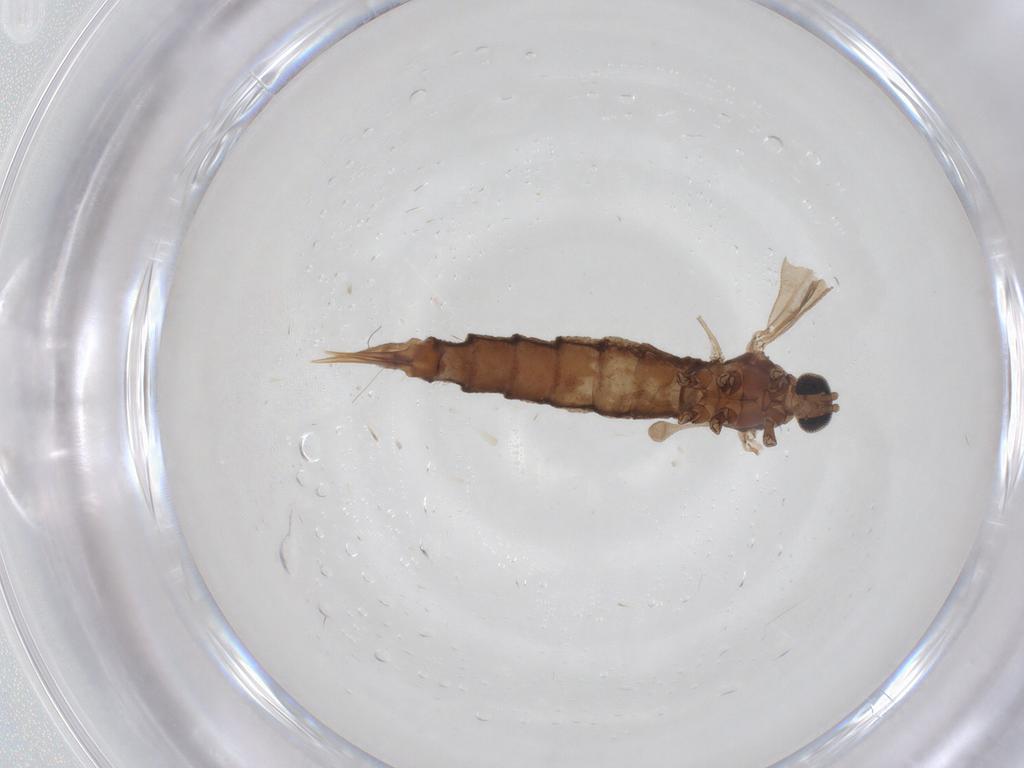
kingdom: Animalia
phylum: Arthropoda
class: Insecta
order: Diptera
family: Limoniidae
